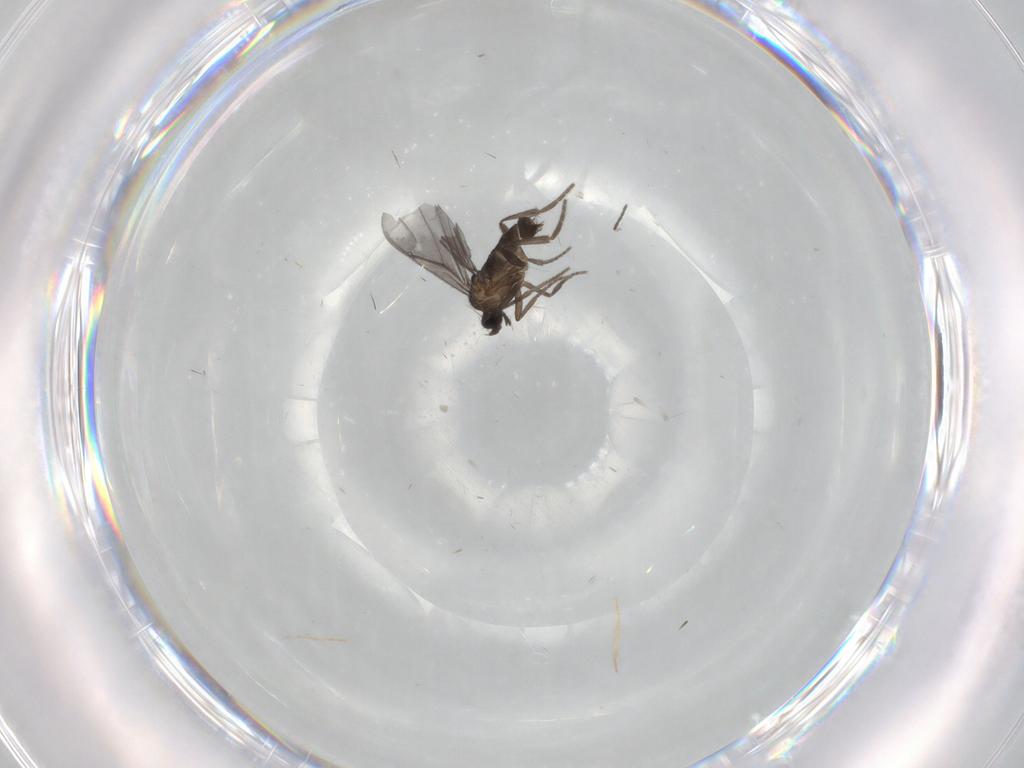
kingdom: Animalia
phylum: Arthropoda
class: Insecta
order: Diptera
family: Phoridae
